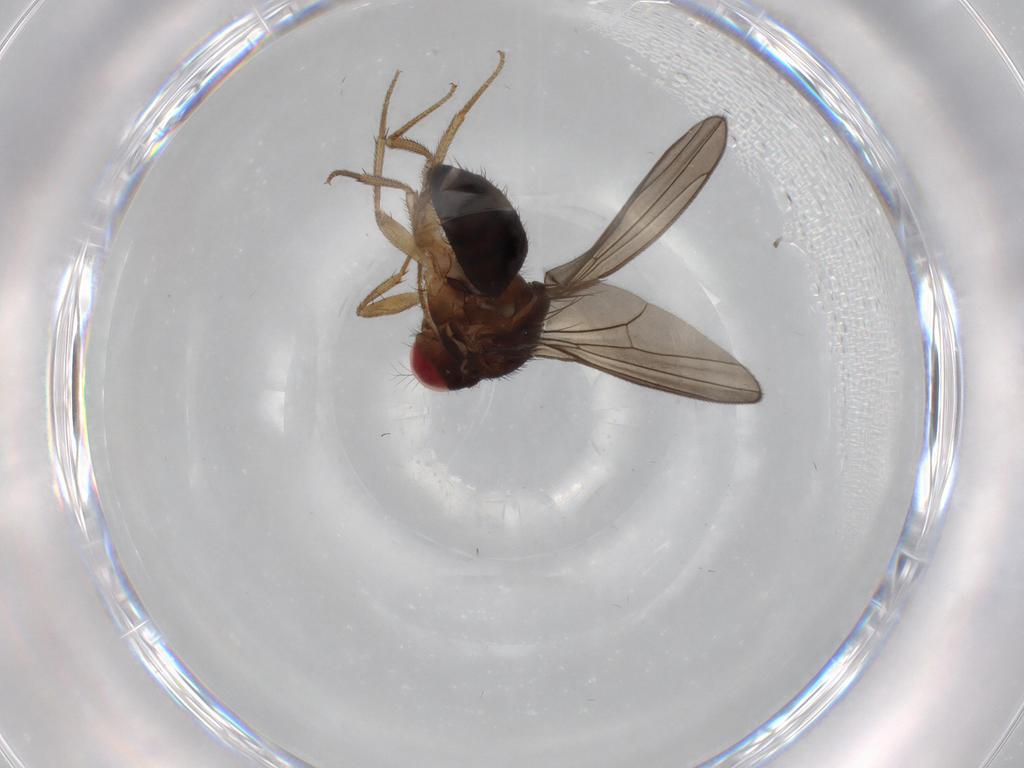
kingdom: Animalia
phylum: Arthropoda
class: Insecta
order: Diptera
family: Drosophilidae
